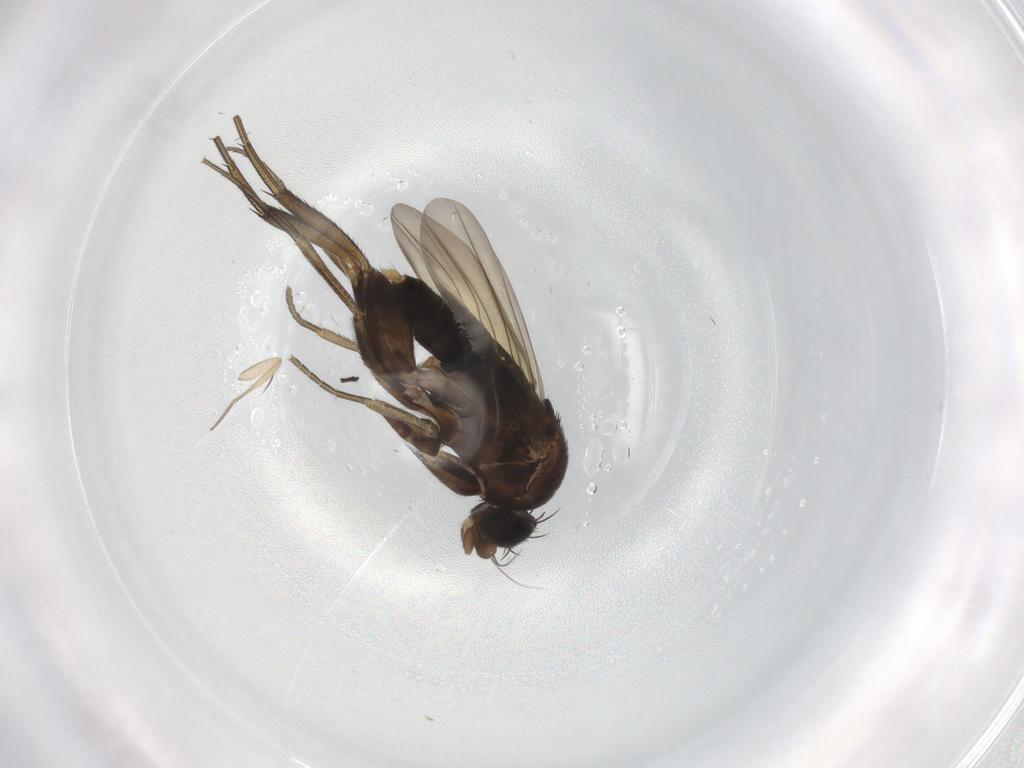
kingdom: Animalia
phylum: Arthropoda
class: Insecta
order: Diptera
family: Phoridae
